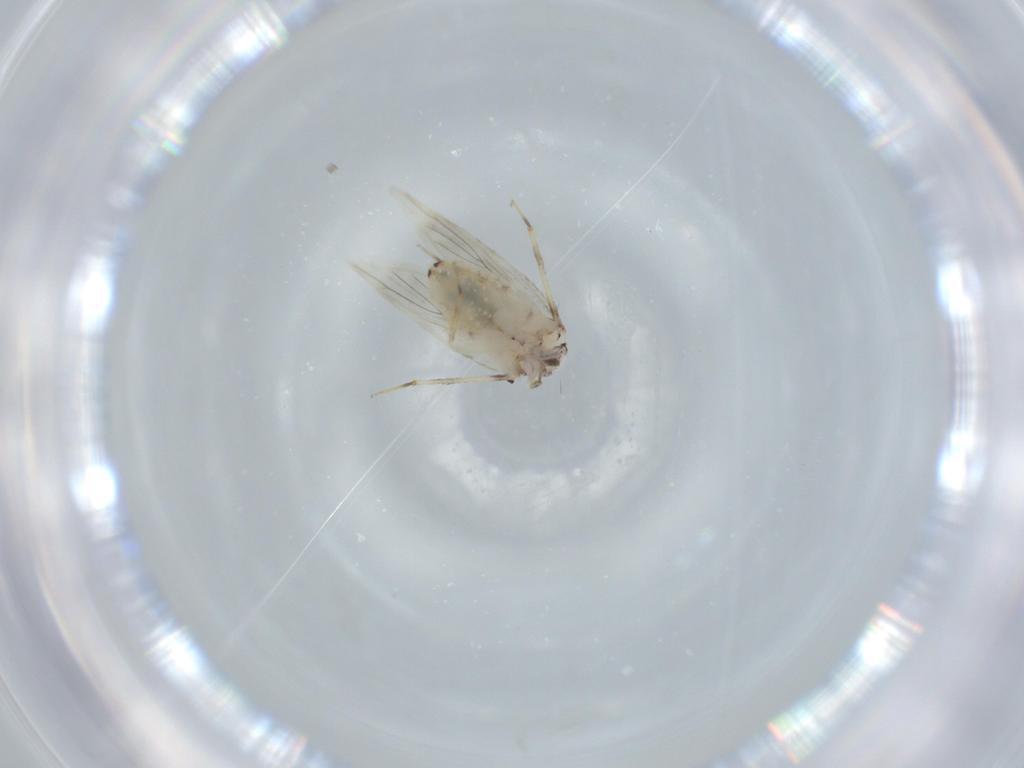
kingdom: Animalia
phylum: Arthropoda
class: Insecta
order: Psocodea
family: Lepidopsocidae
